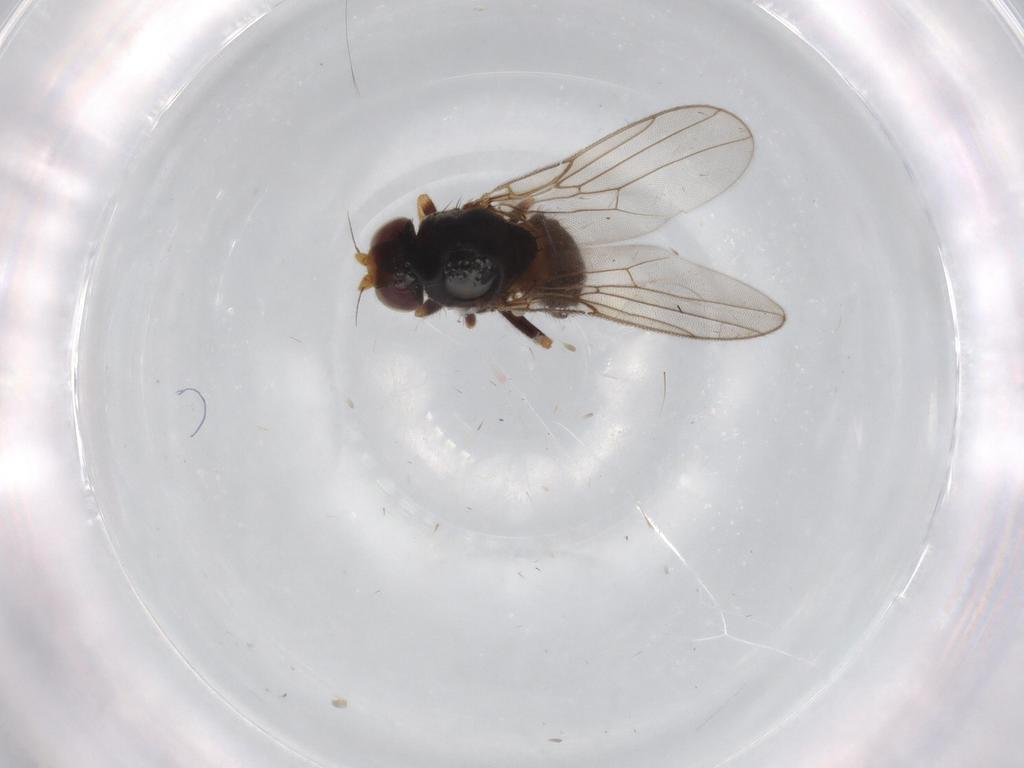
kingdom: Animalia
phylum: Arthropoda
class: Insecta
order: Diptera
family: Chloropidae
